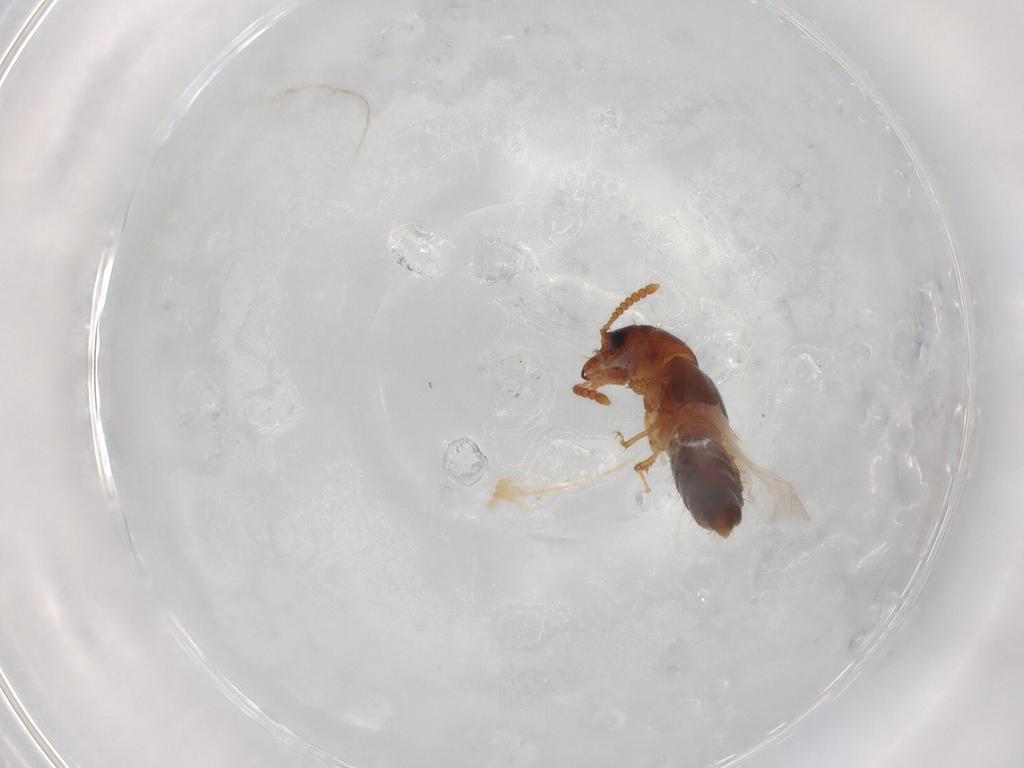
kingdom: Animalia
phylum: Arthropoda
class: Insecta
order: Coleoptera
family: Staphylinidae
